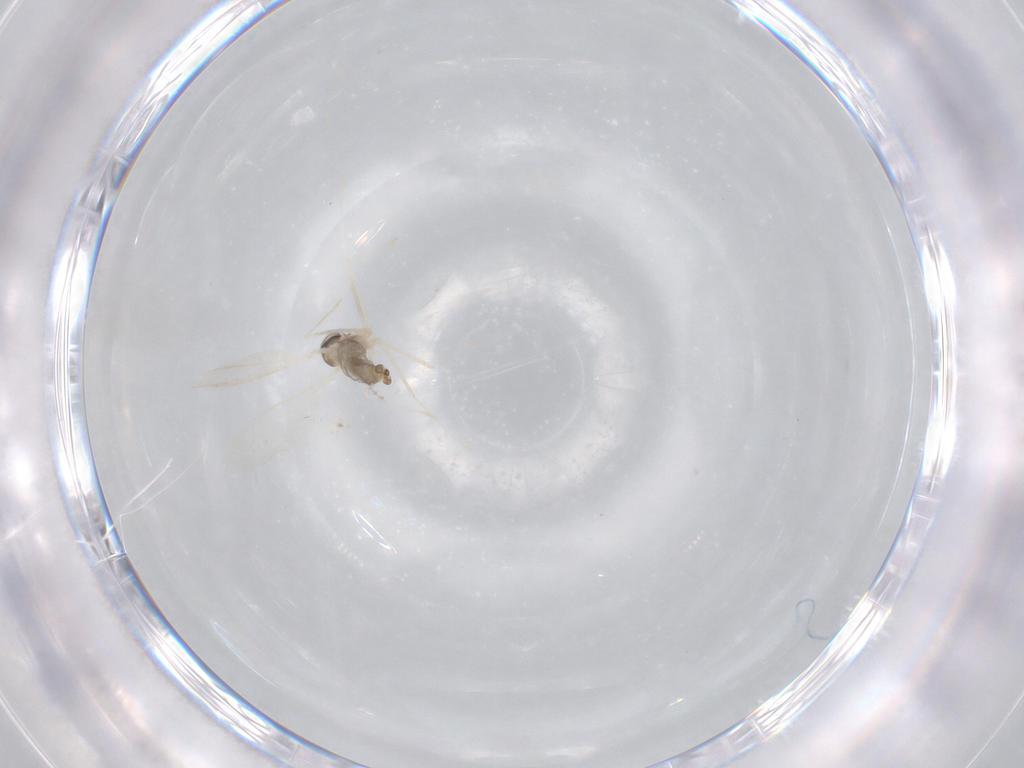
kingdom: Animalia
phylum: Arthropoda
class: Insecta
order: Diptera
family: Cecidomyiidae
